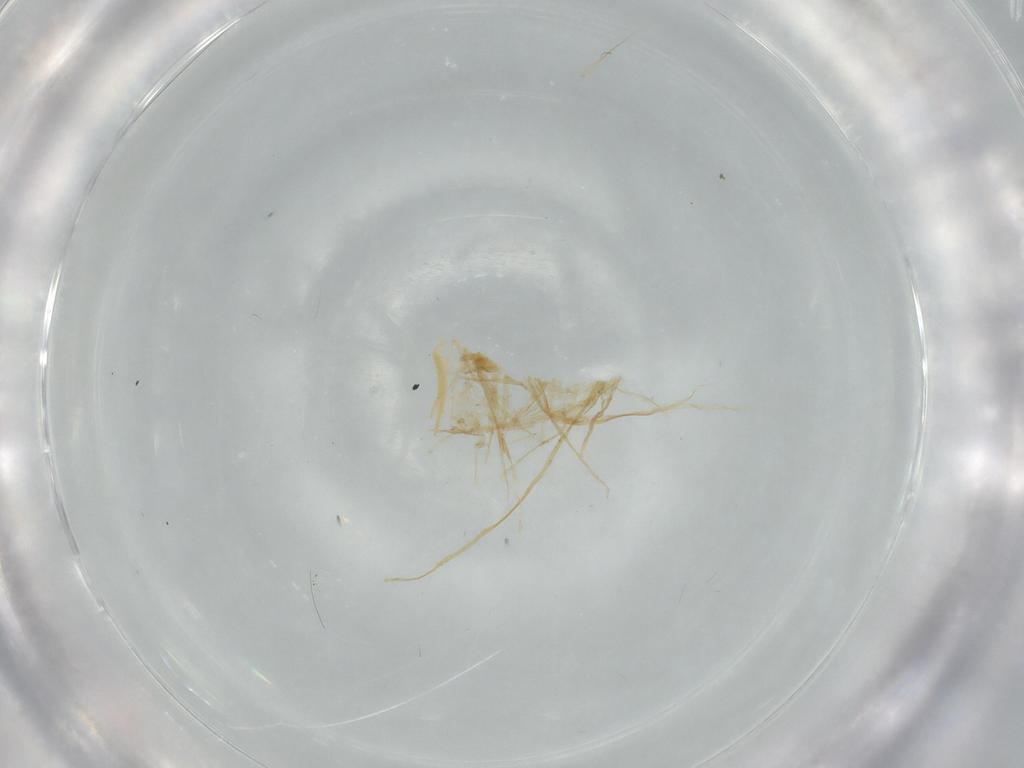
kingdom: Animalia
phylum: Arthropoda
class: Insecta
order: Diptera
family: Cecidomyiidae
